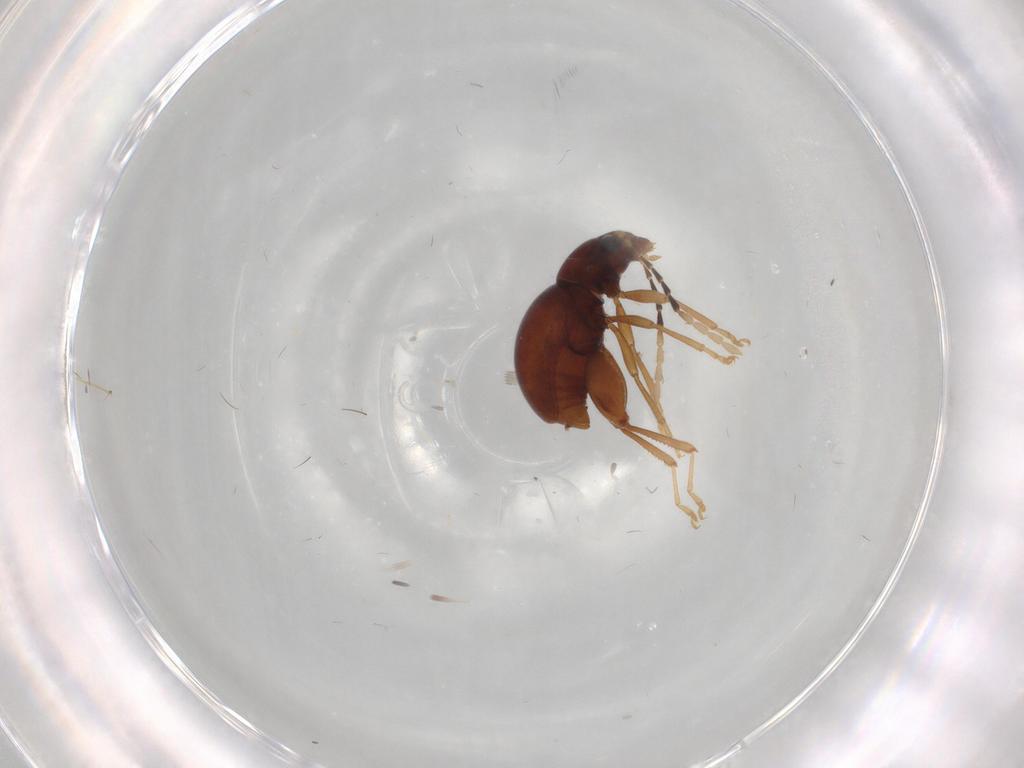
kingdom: Animalia
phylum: Arthropoda
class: Insecta
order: Coleoptera
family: Chrysomelidae
